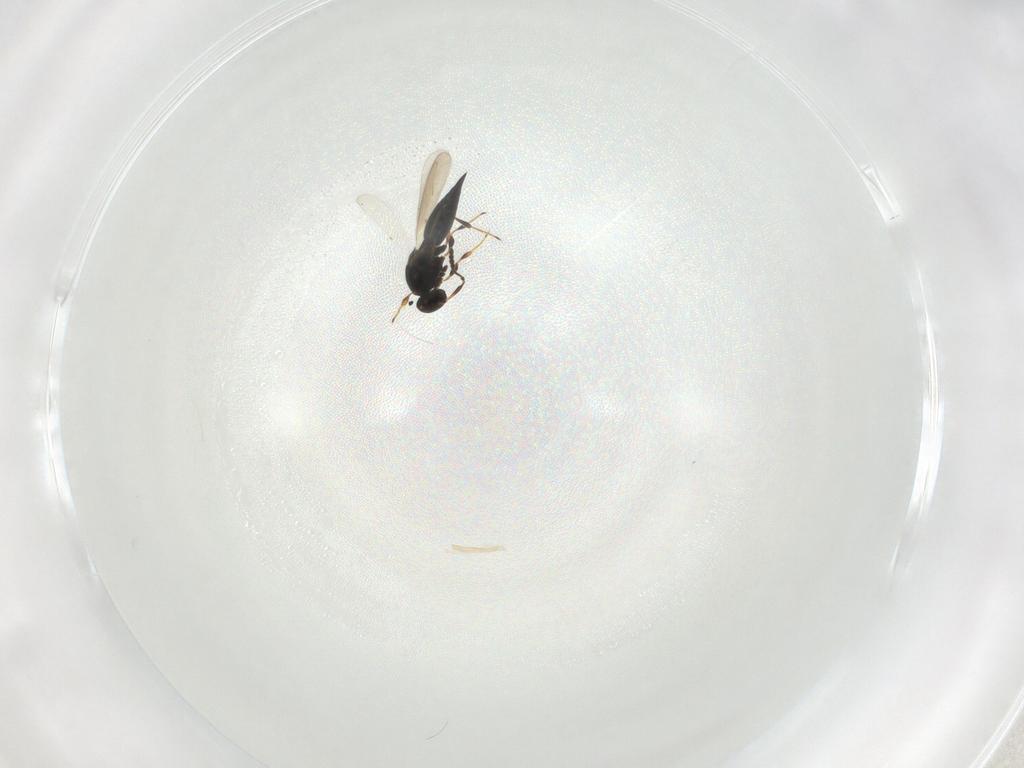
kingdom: Animalia
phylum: Arthropoda
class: Insecta
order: Hymenoptera
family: Platygastridae
